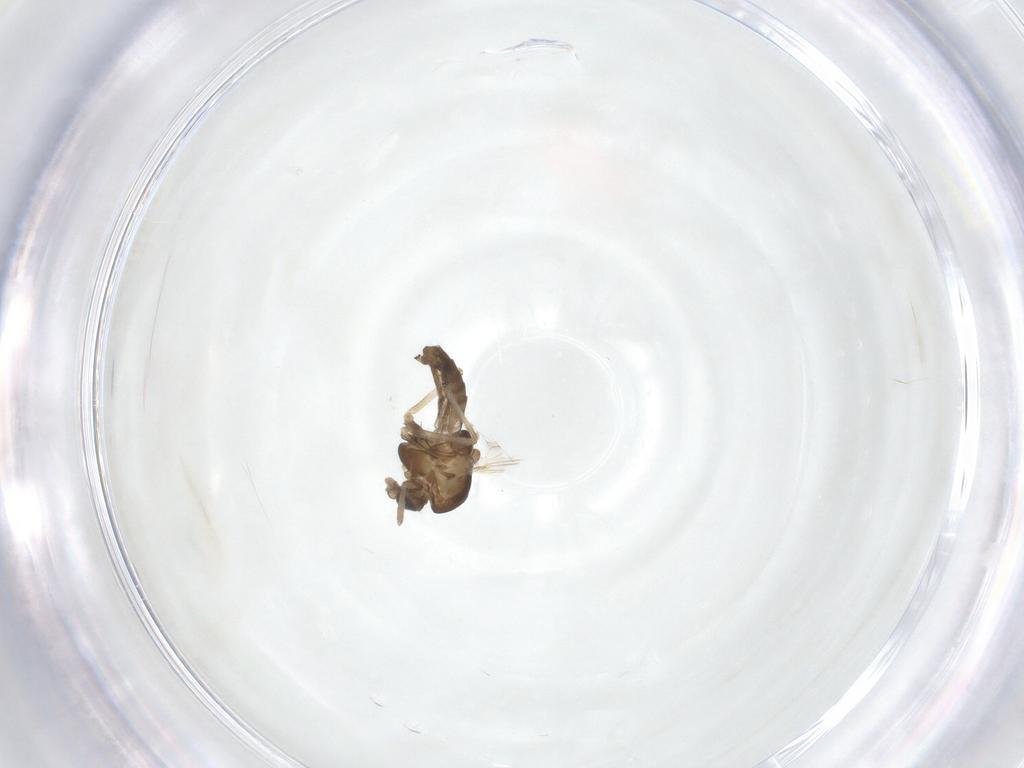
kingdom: Animalia
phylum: Arthropoda
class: Insecta
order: Diptera
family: Chironomidae
